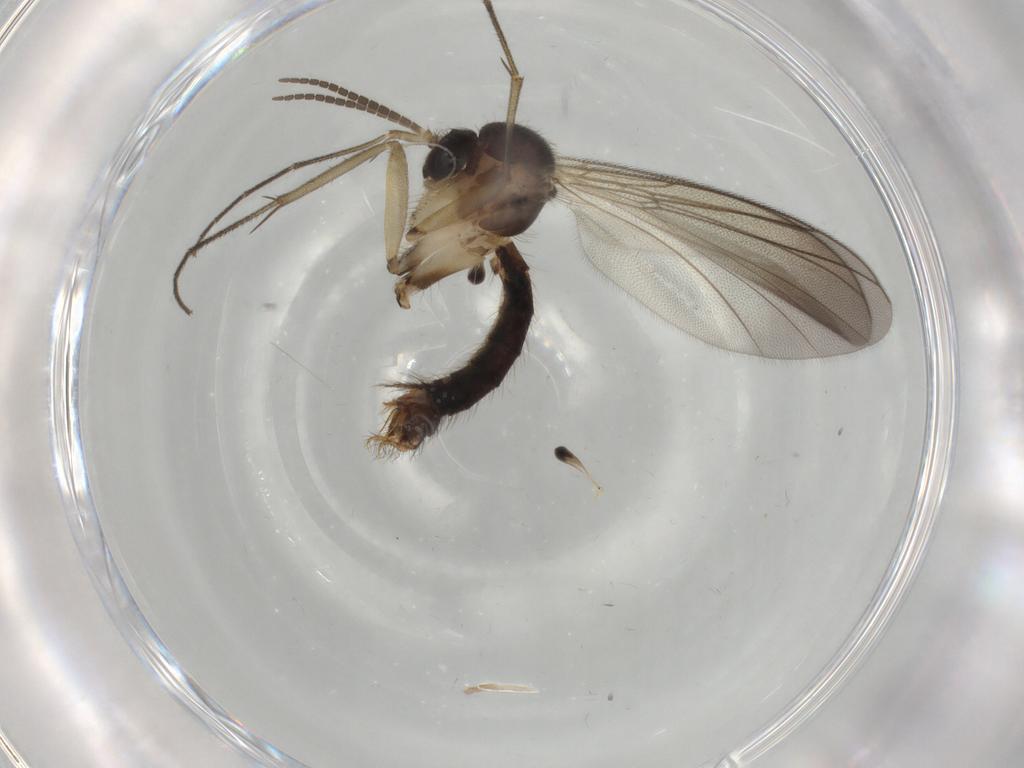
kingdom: Animalia
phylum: Arthropoda
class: Insecta
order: Diptera
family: Mycetophilidae
